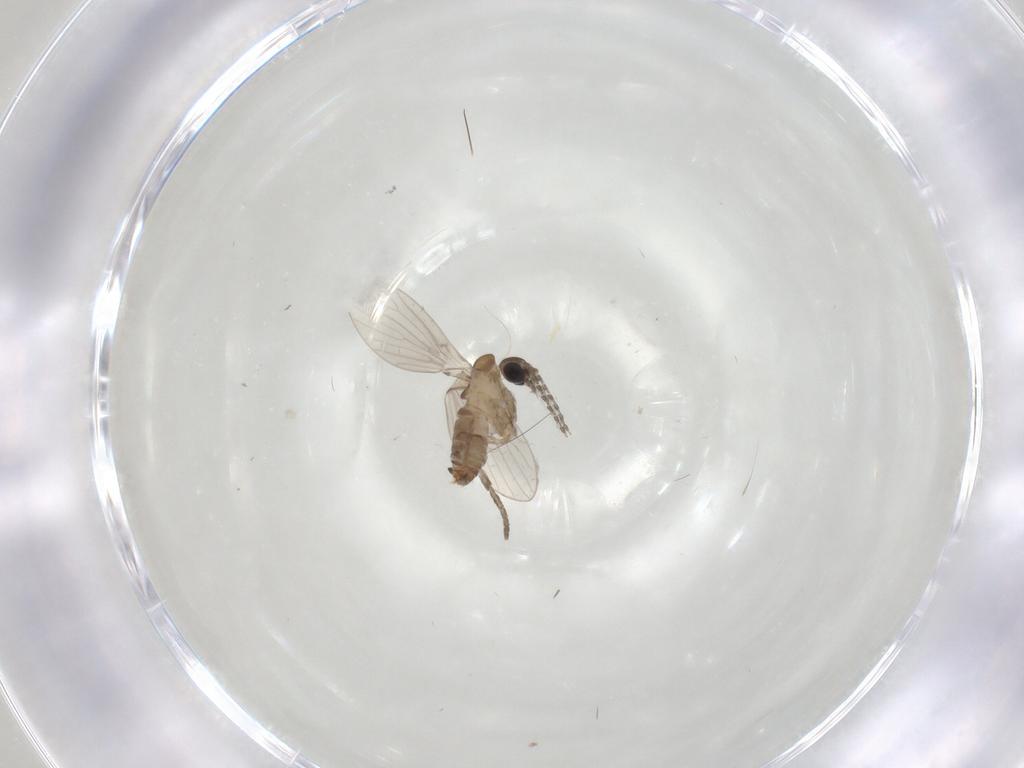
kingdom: Animalia
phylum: Arthropoda
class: Insecta
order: Diptera
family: Psychodidae
